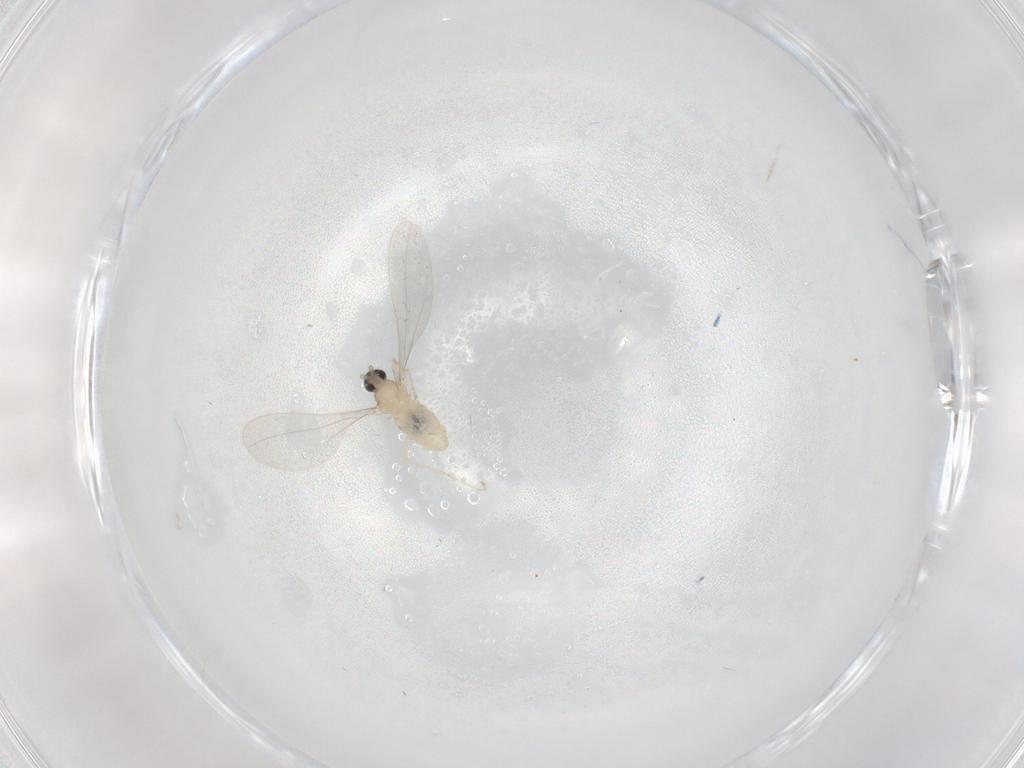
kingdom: Animalia
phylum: Arthropoda
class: Insecta
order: Diptera
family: Cecidomyiidae
